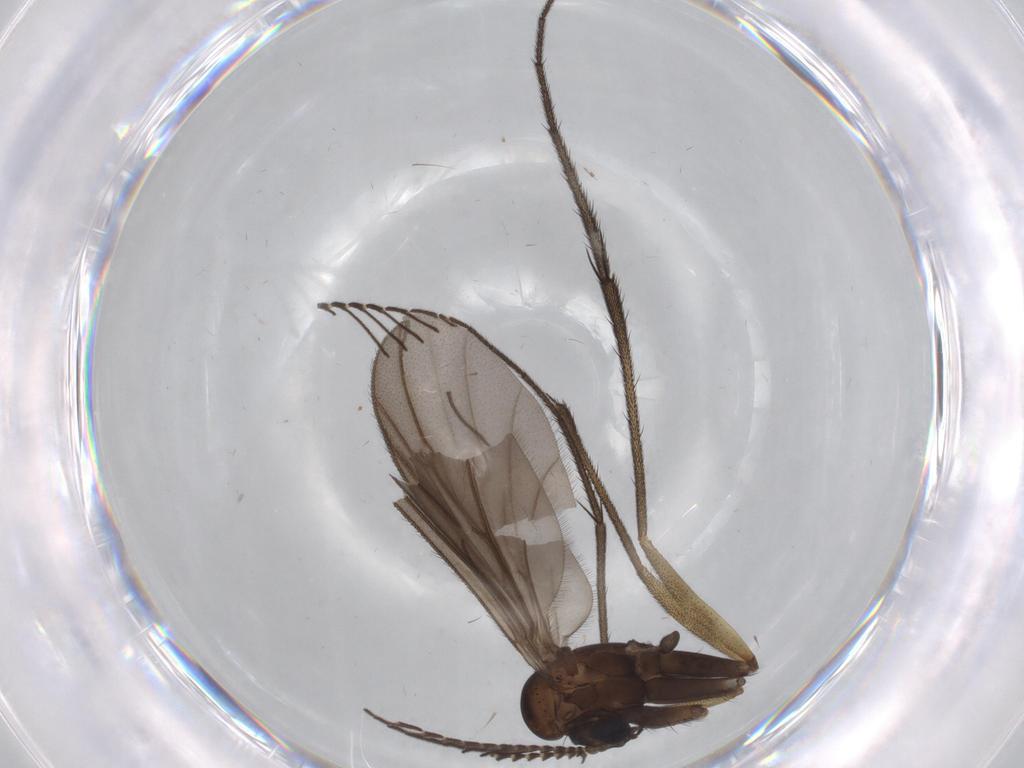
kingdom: Animalia
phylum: Arthropoda
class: Insecta
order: Diptera
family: Ditomyiidae
